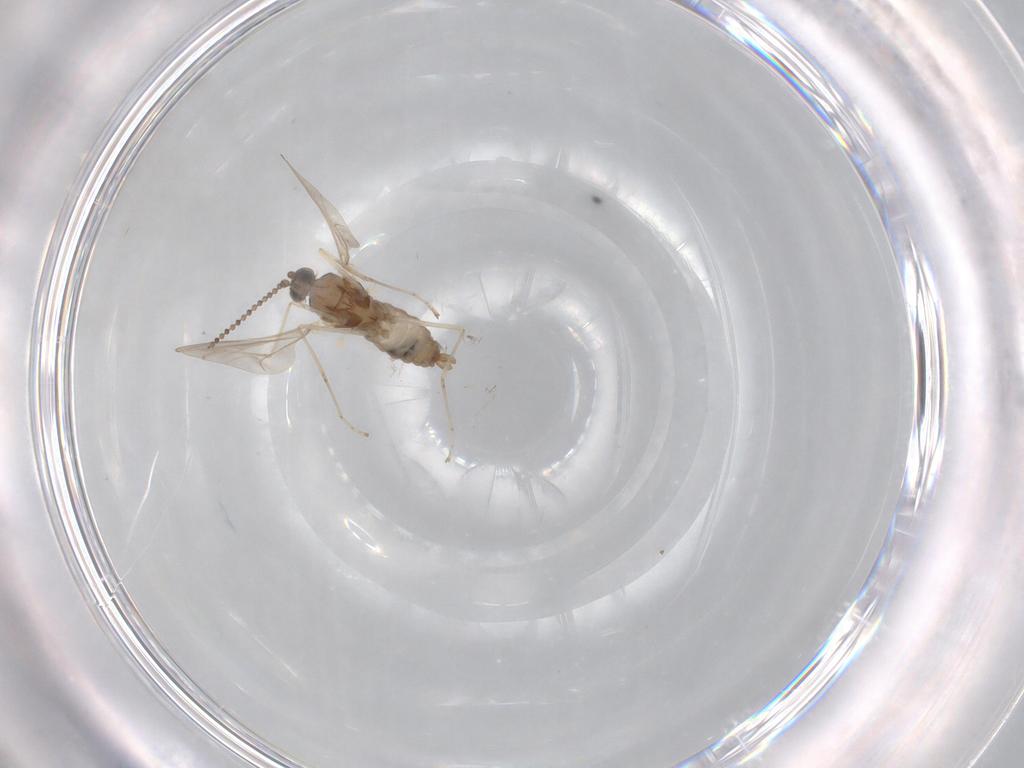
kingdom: Animalia
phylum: Arthropoda
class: Insecta
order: Diptera
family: Cecidomyiidae
